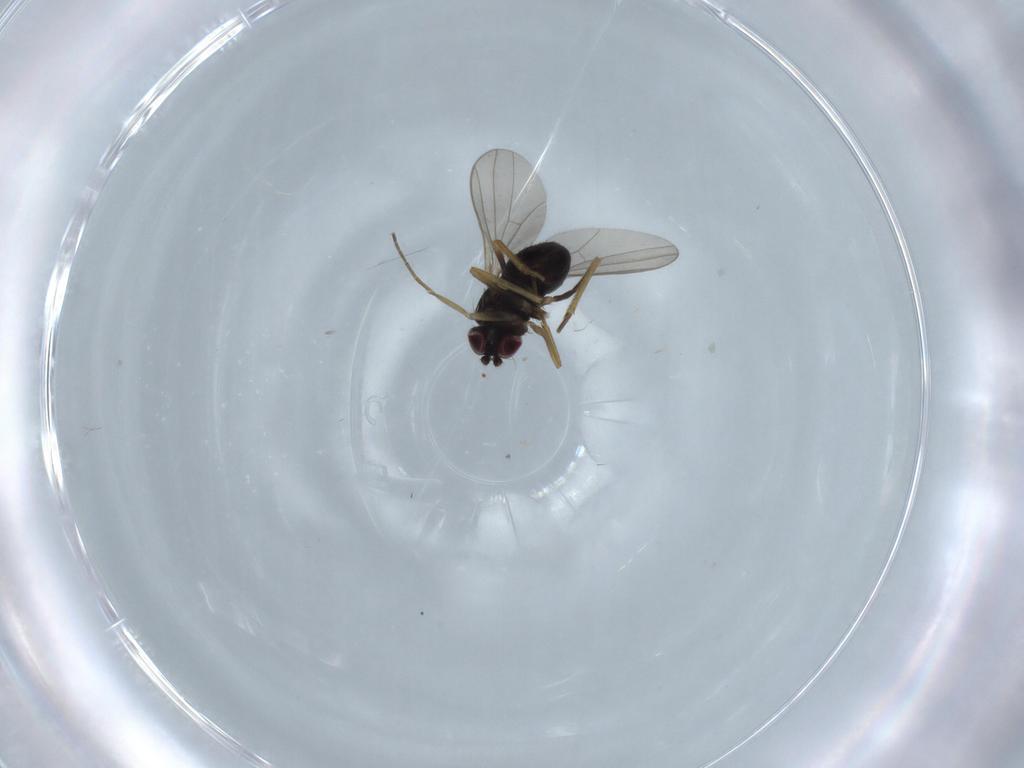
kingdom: Animalia
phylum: Arthropoda
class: Insecta
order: Diptera
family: Dolichopodidae
